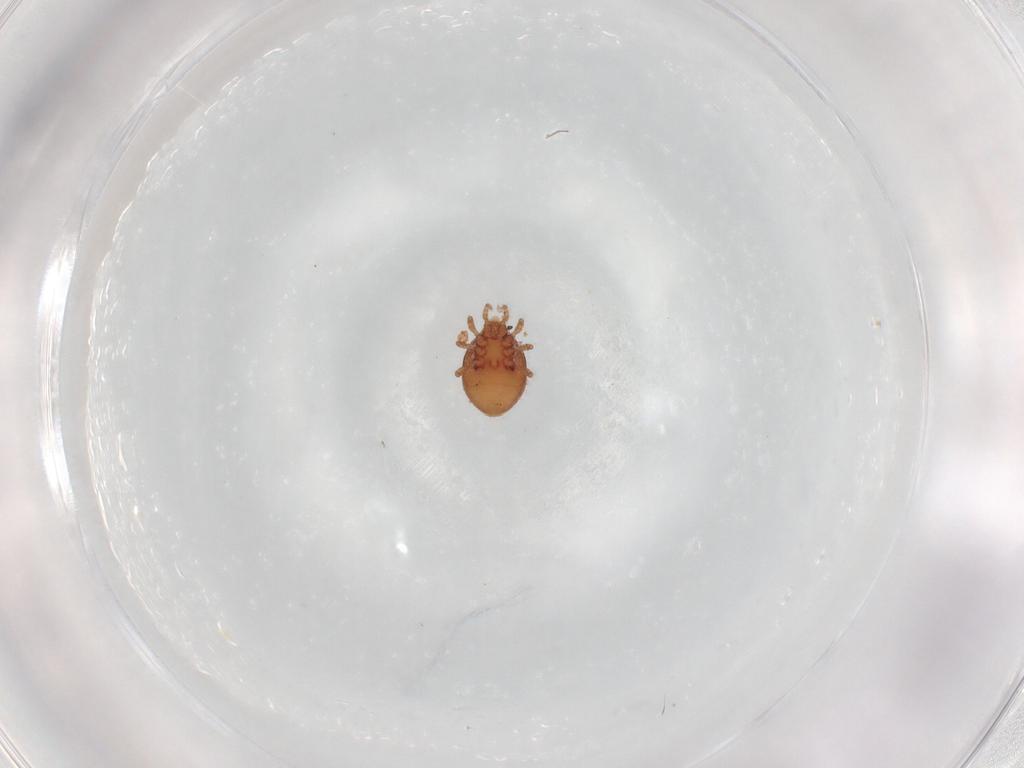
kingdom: Animalia
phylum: Arthropoda
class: Arachnida
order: Mesostigmata
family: Dinychidae
